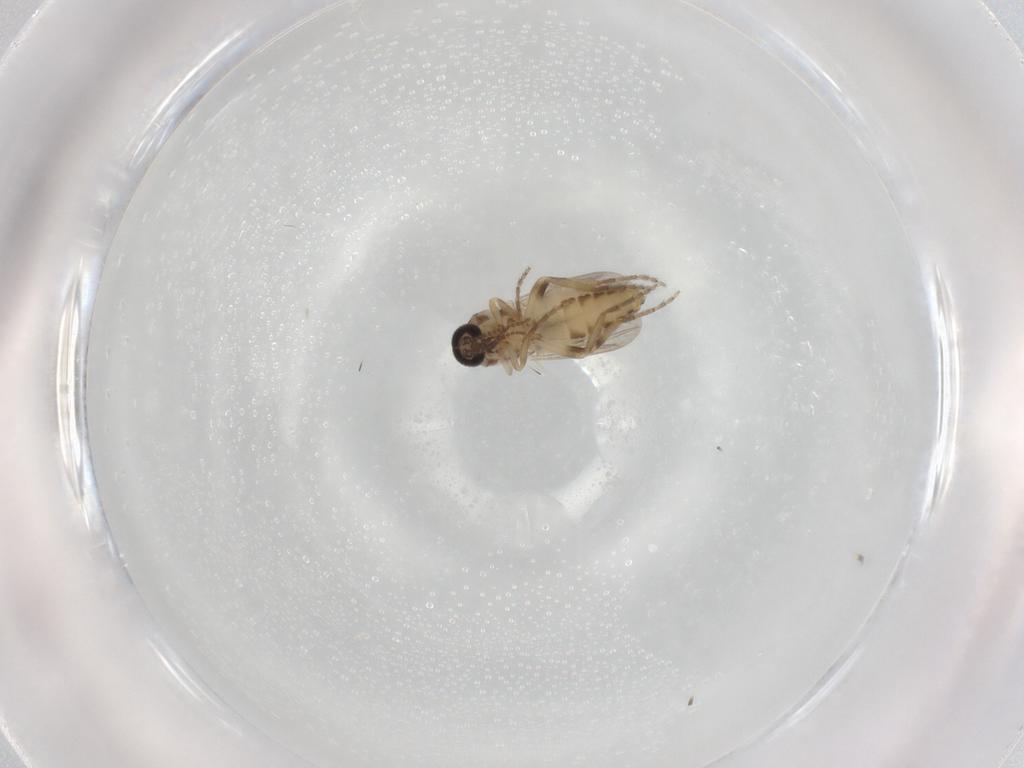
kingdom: Animalia
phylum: Arthropoda
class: Insecta
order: Diptera
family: Ceratopogonidae
